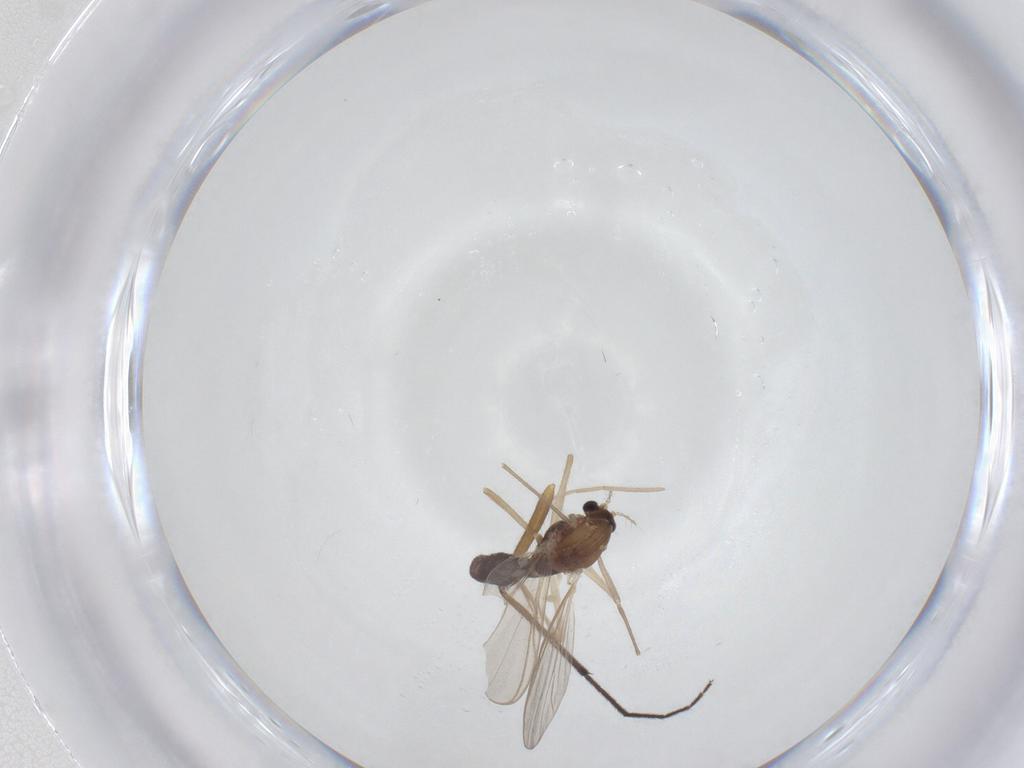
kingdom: Animalia
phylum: Arthropoda
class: Insecta
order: Diptera
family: Chironomidae
